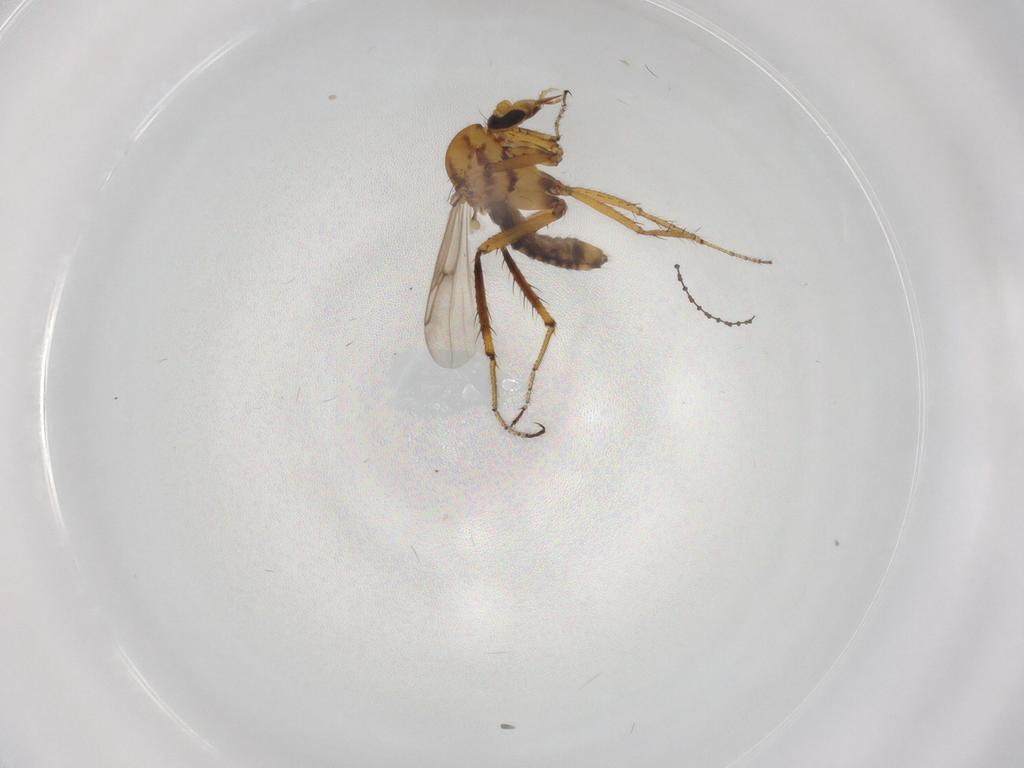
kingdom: Animalia
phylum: Arthropoda
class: Insecta
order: Diptera
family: Ceratopogonidae
